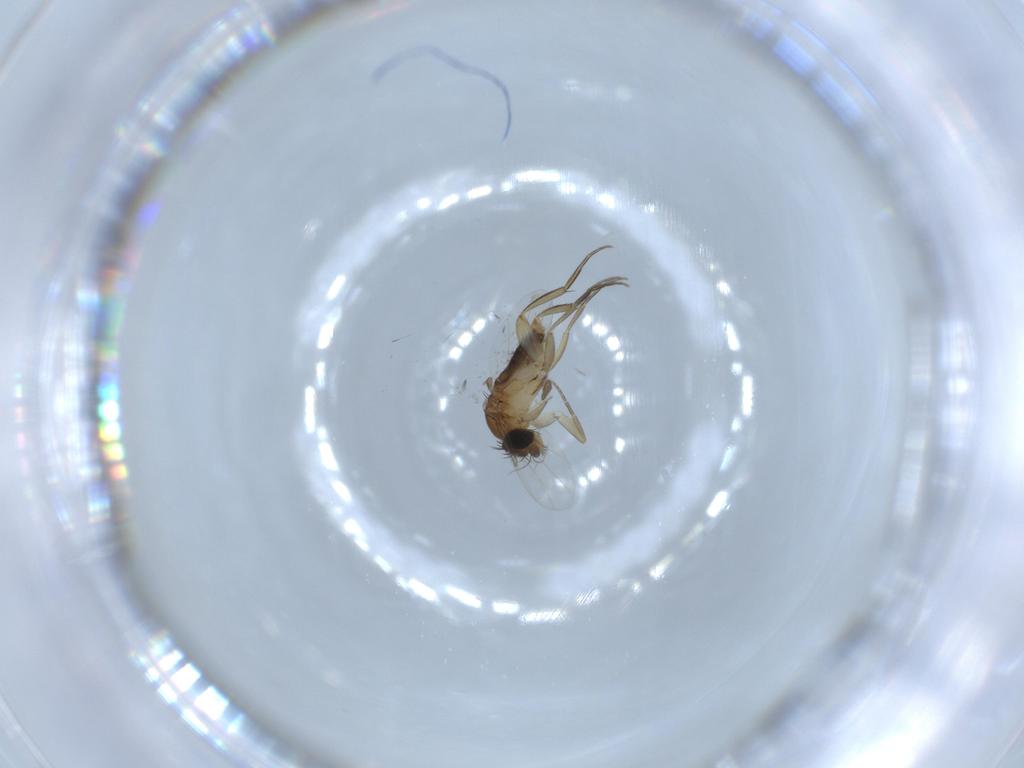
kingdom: Animalia
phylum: Arthropoda
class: Insecta
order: Diptera
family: Phoridae
